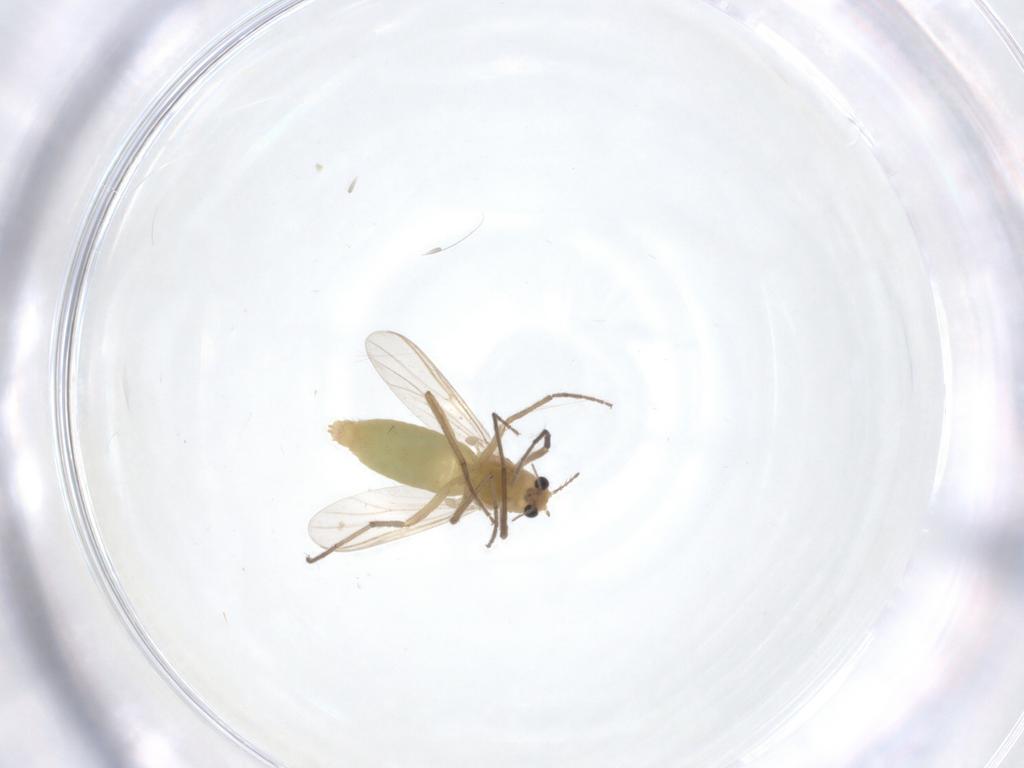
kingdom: Animalia
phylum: Arthropoda
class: Insecta
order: Diptera
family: Chironomidae
